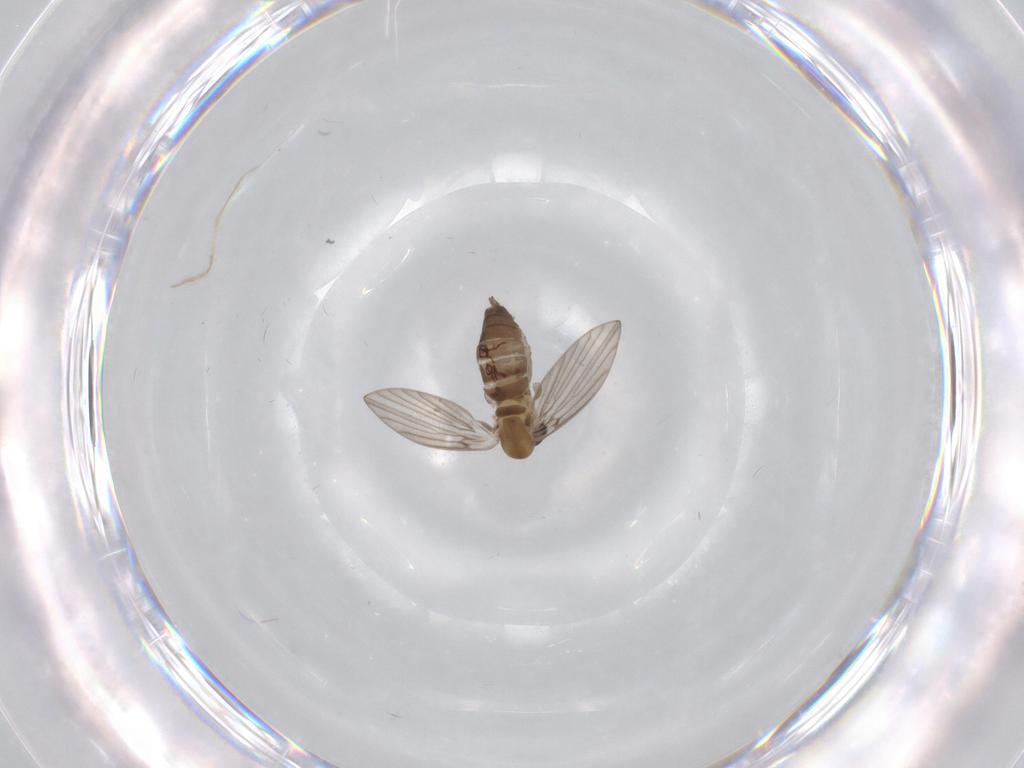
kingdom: Animalia
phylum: Arthropoda
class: Insecta
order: Diptera
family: Psychodidae
